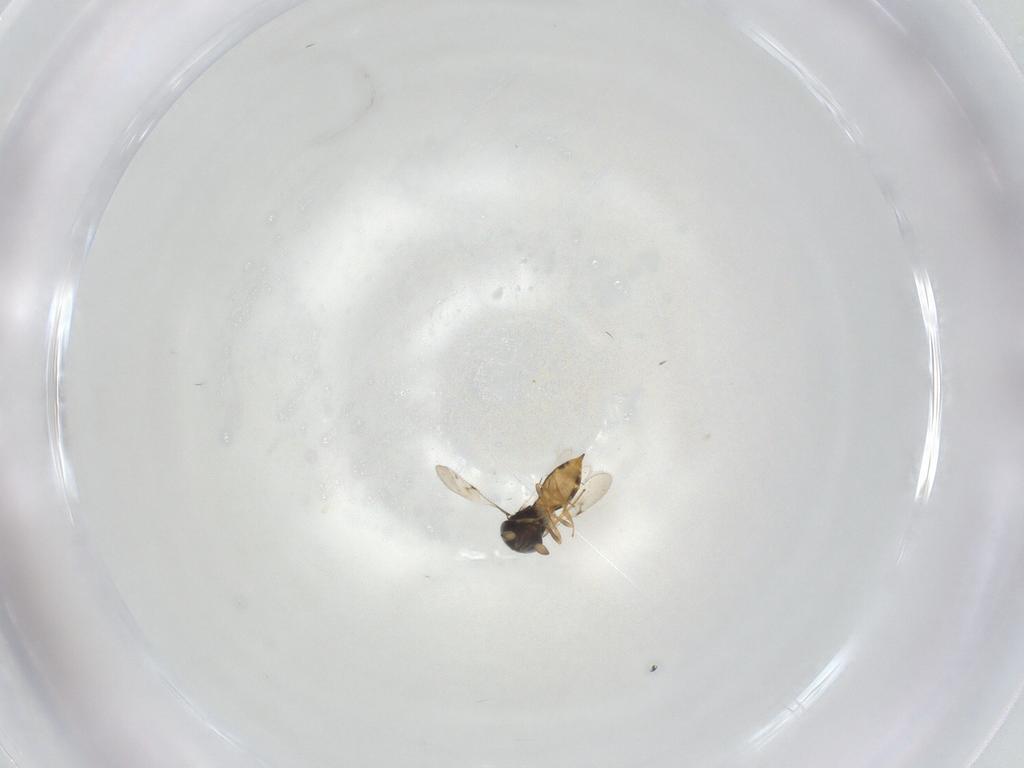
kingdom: Animalia
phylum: Arthropoda
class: Insecta
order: Hymenoptera
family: Scelionidae
